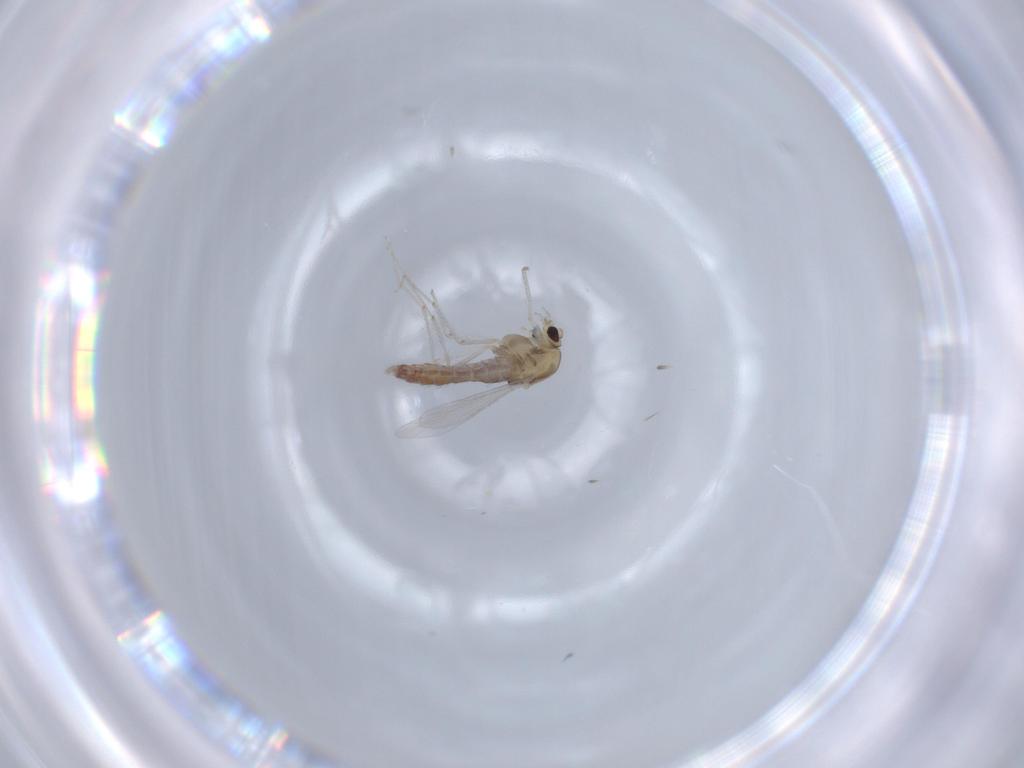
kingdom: Animalia
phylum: Arthropoda
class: Insecta
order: Diptera
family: Chironomidae
